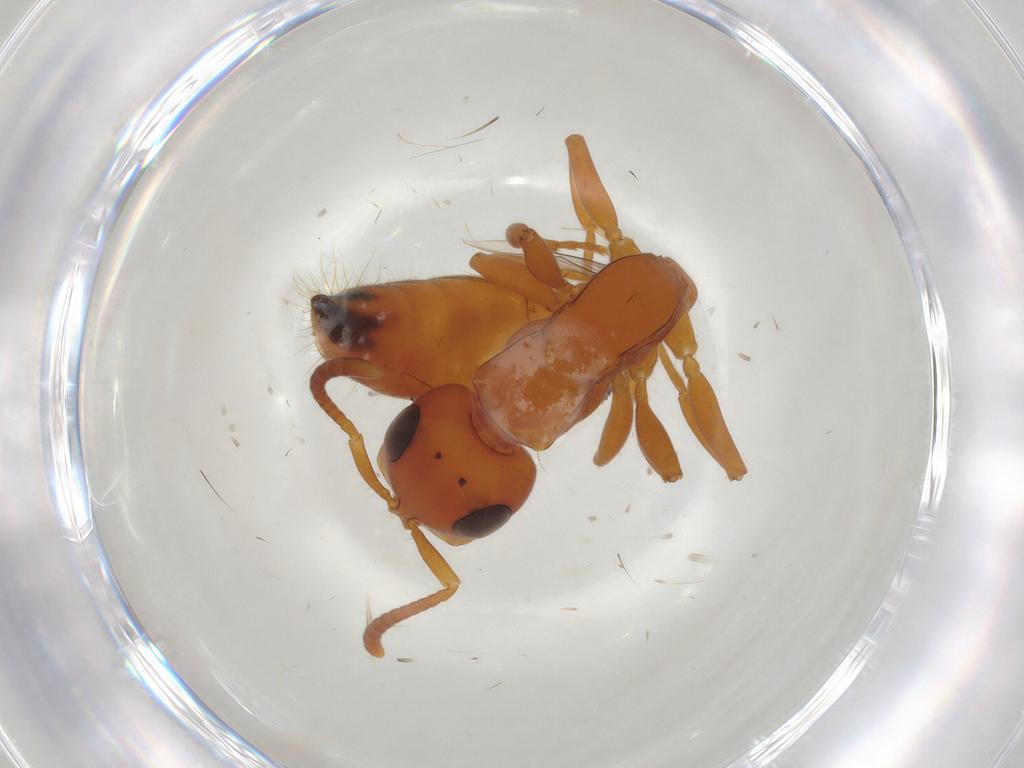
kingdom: Animalia
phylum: Arthropoda
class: Insecta
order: Hymenoptera
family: Formicidae
